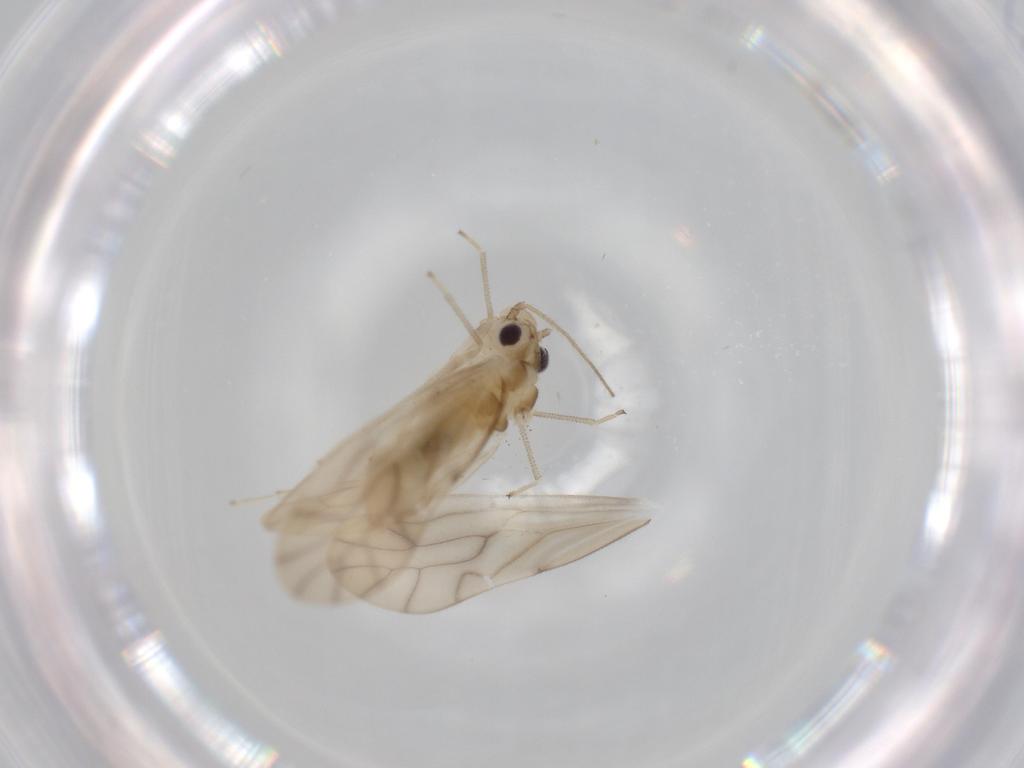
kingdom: Animalia
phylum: Arthropoda
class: Insecta
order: Psocodea
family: Caeciliusidae
